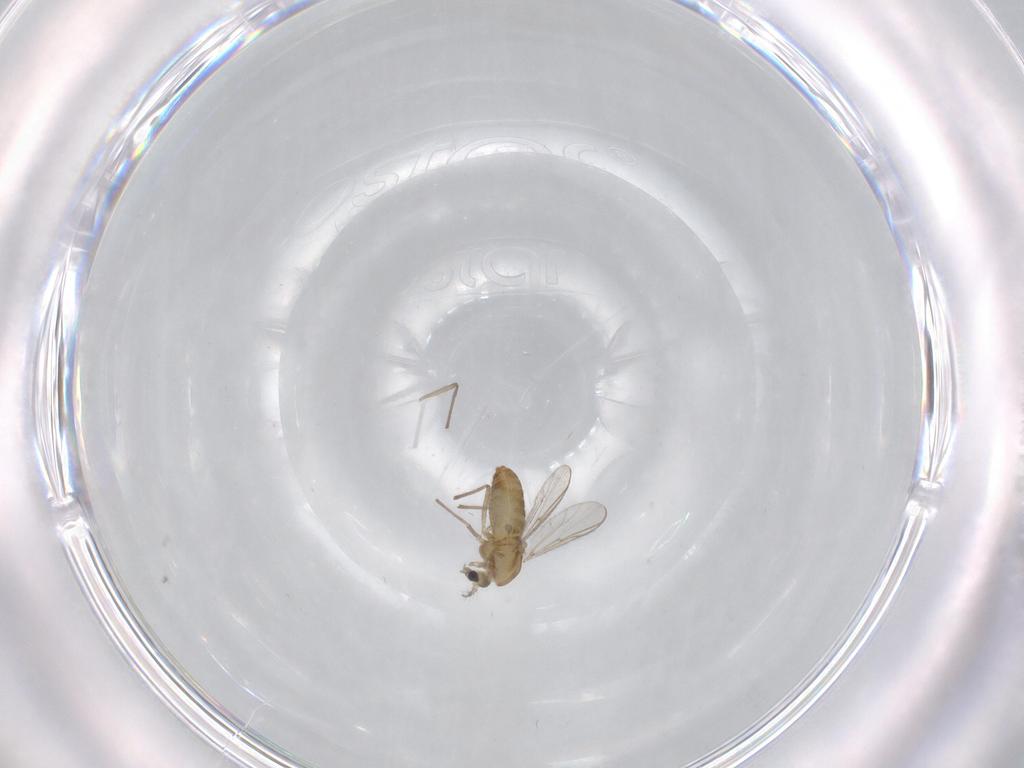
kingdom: Animalia
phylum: Arthropoda
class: Insecta
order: Diptera
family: Chironomidae
